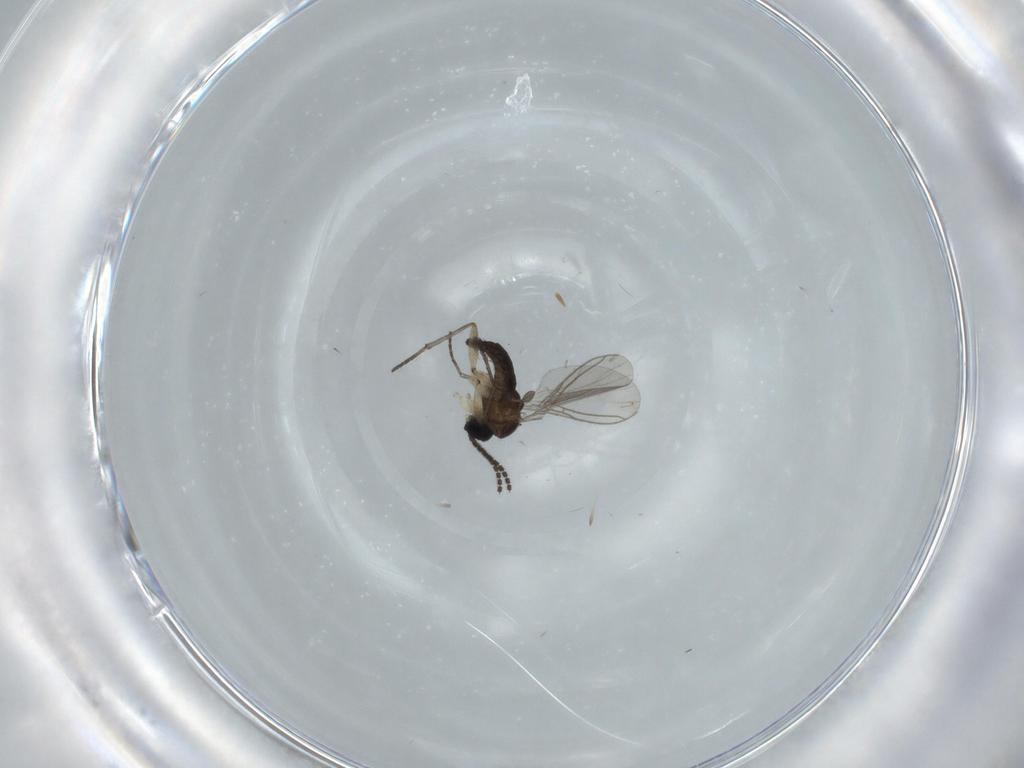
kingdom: Animalia
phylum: Arthropoda
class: Insecta
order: Diptera
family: Sciaridae
